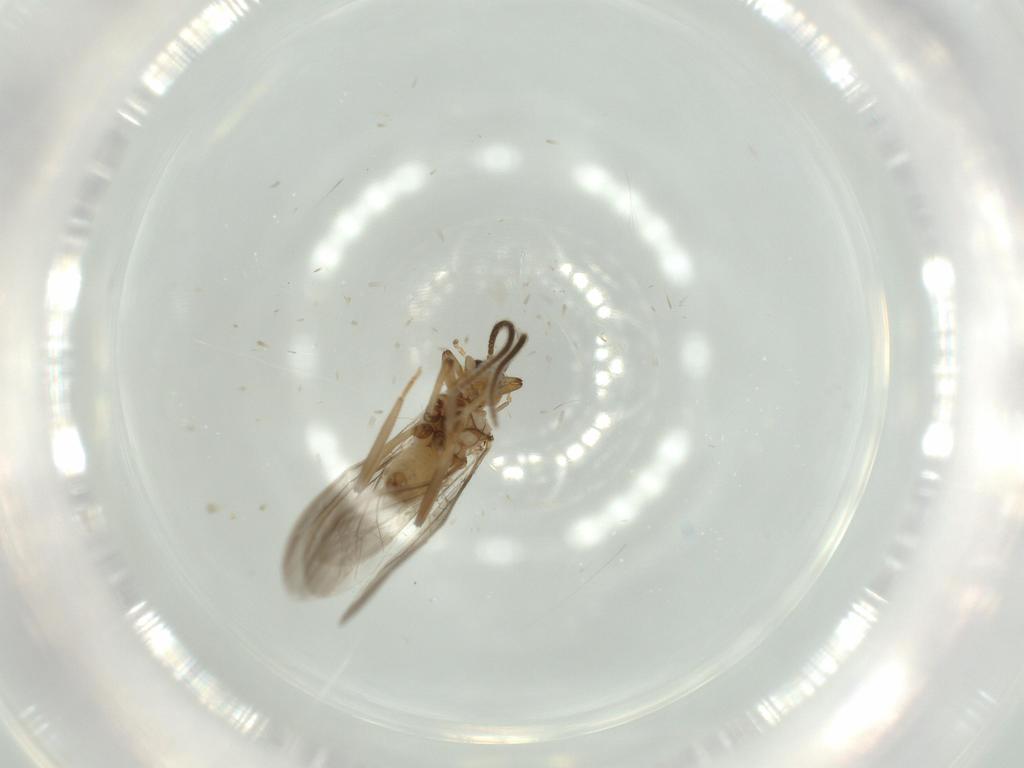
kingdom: Animalia
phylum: Arthropoda
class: Insecta
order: Neuroptera
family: Coniopterygidae
